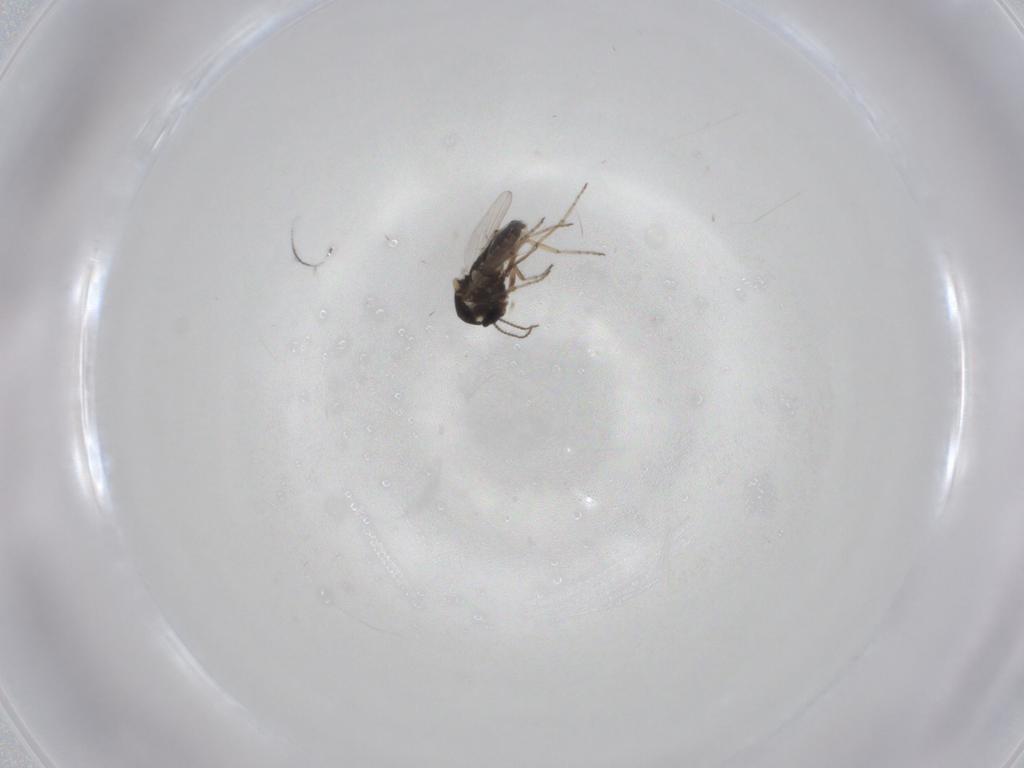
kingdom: Animalia
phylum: Arthropoda
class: Insecta
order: Diptera
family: Ceratopogonidae
